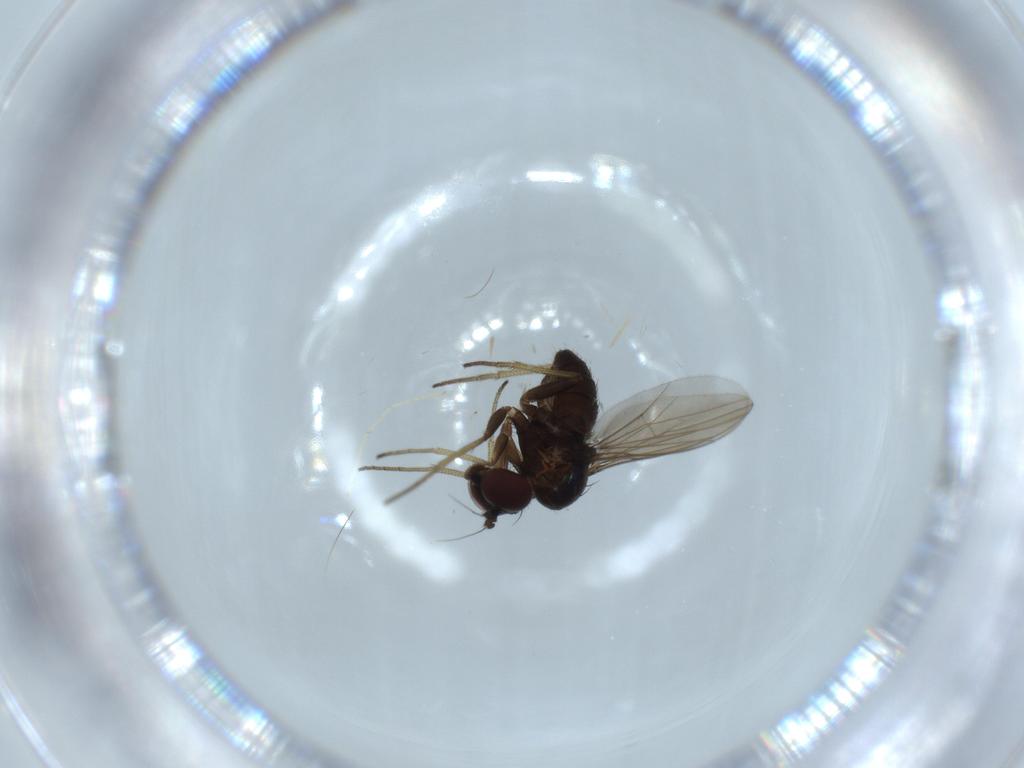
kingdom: Animalia
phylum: Arthropoda
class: Insecta
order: Diptera
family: Dolichopodidae
